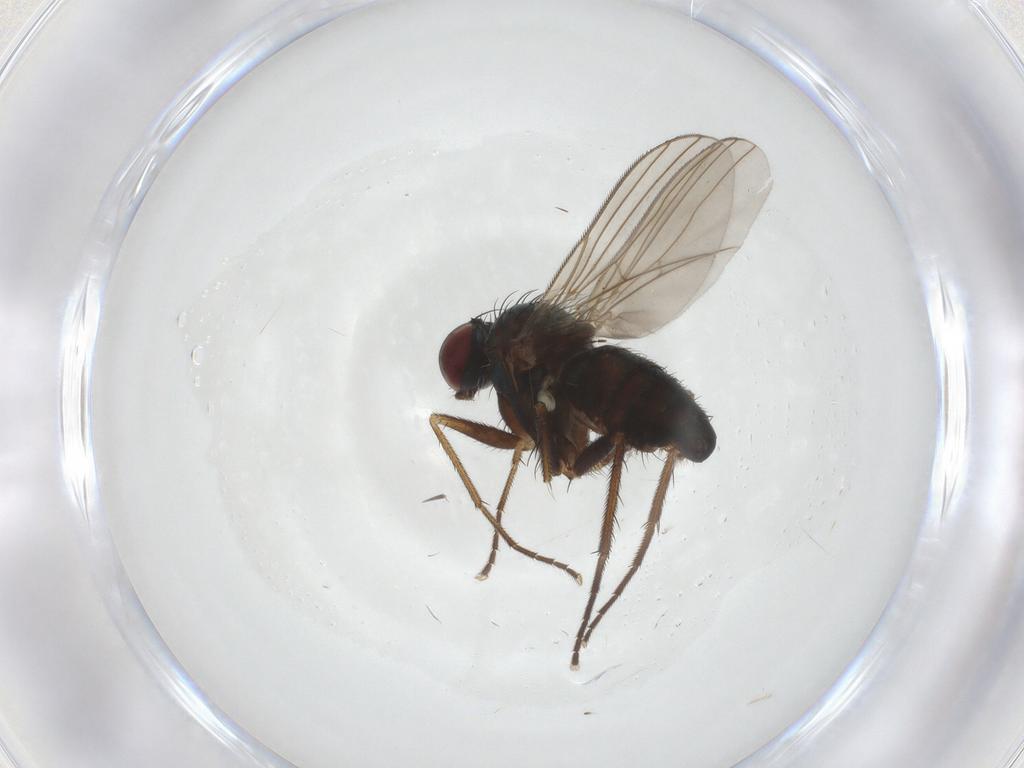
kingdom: Animalia
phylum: Arthropoda
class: Insecta
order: Diptera
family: Dolichopodidae
